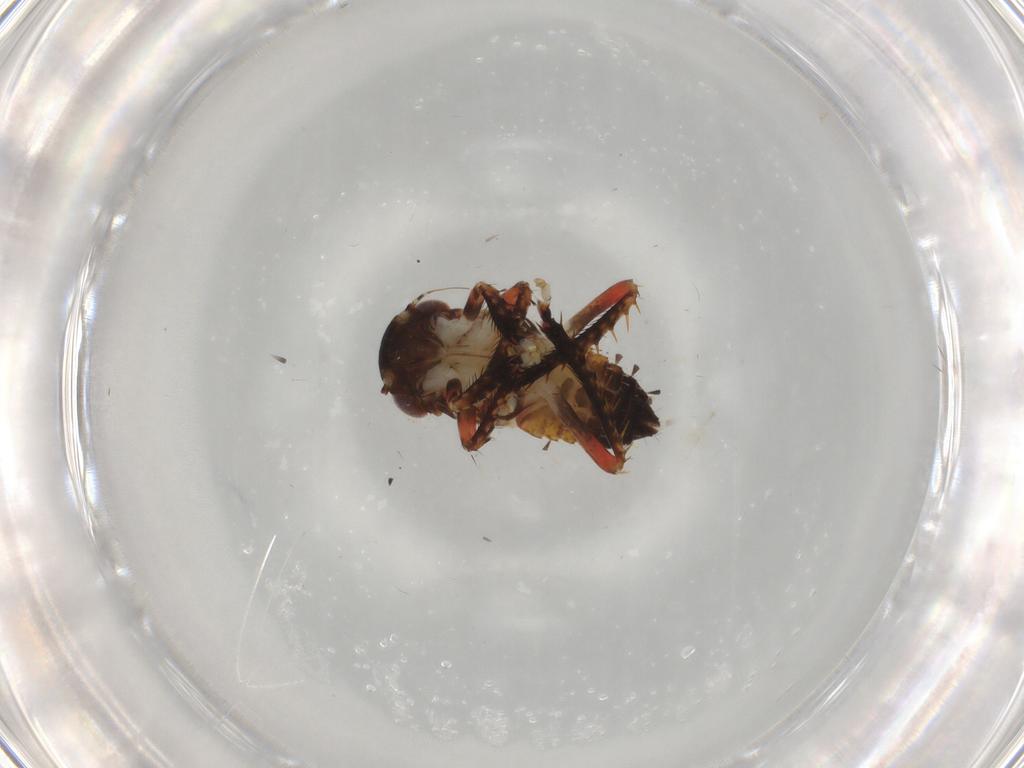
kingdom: Animalia
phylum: Arthropoda
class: Insecta
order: Hemiptera
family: Cicadellidae
